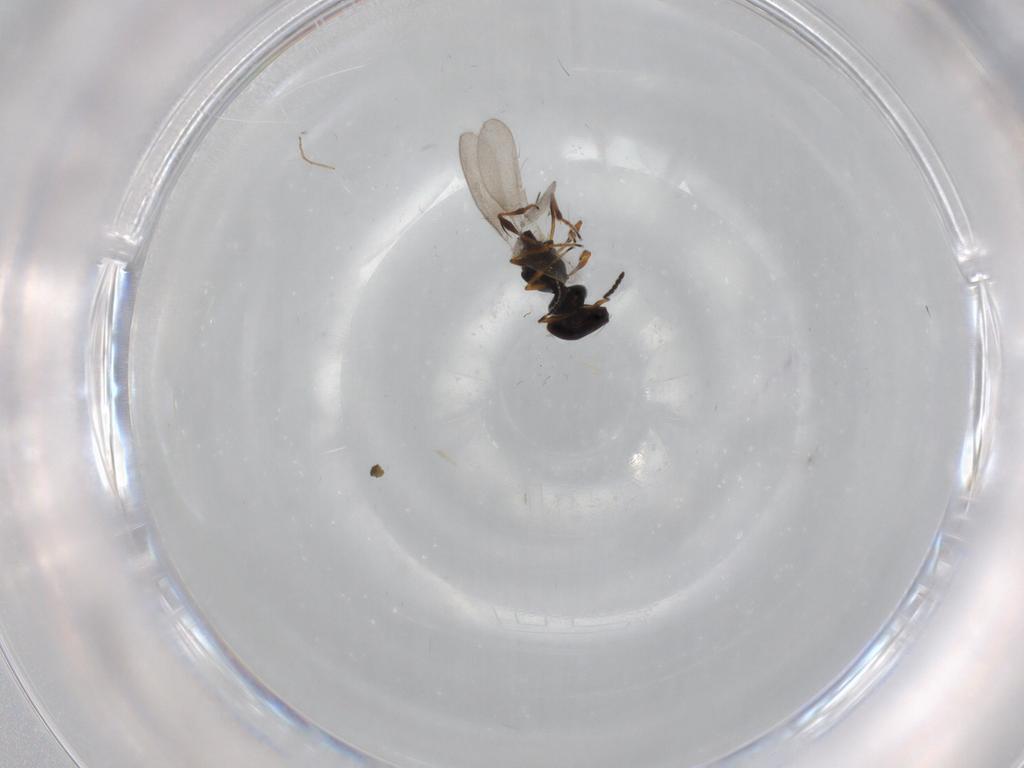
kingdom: Animalia
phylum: Arthropoda
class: Insecta
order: Hymenoptera
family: Platygastridae
